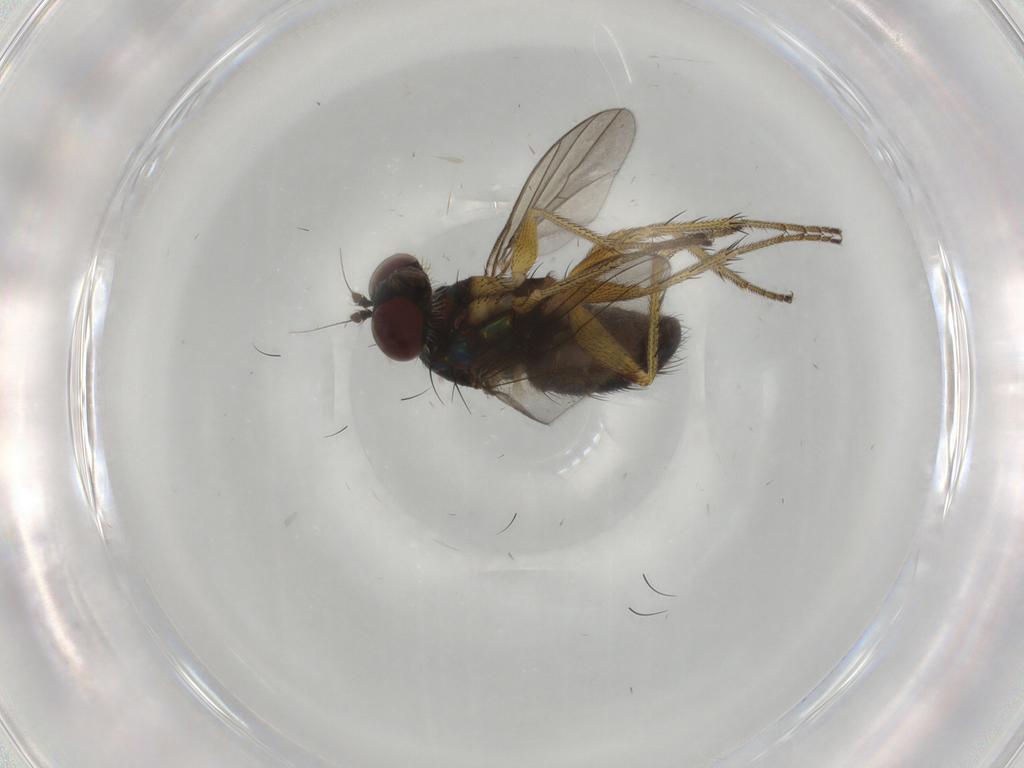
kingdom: Animalia
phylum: Arthropoda
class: Insecta
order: Diptera
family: Dolichopodidae
